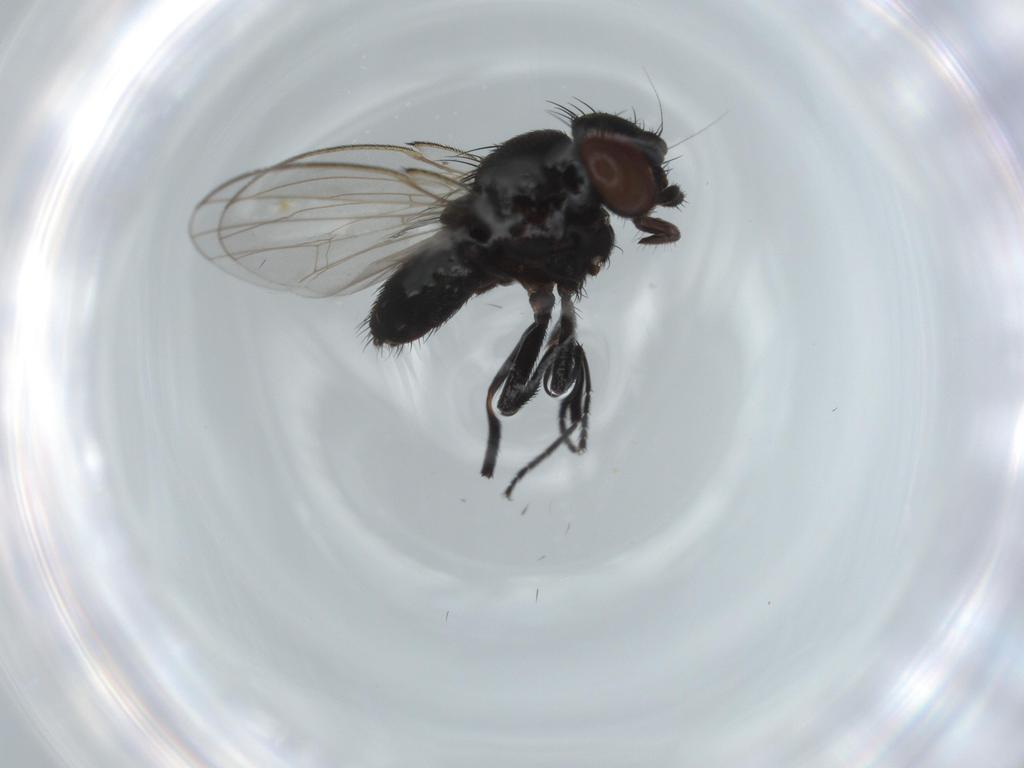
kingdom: Animalia
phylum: Arthropoda
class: Insecta
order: Diptera
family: Milichiidae
